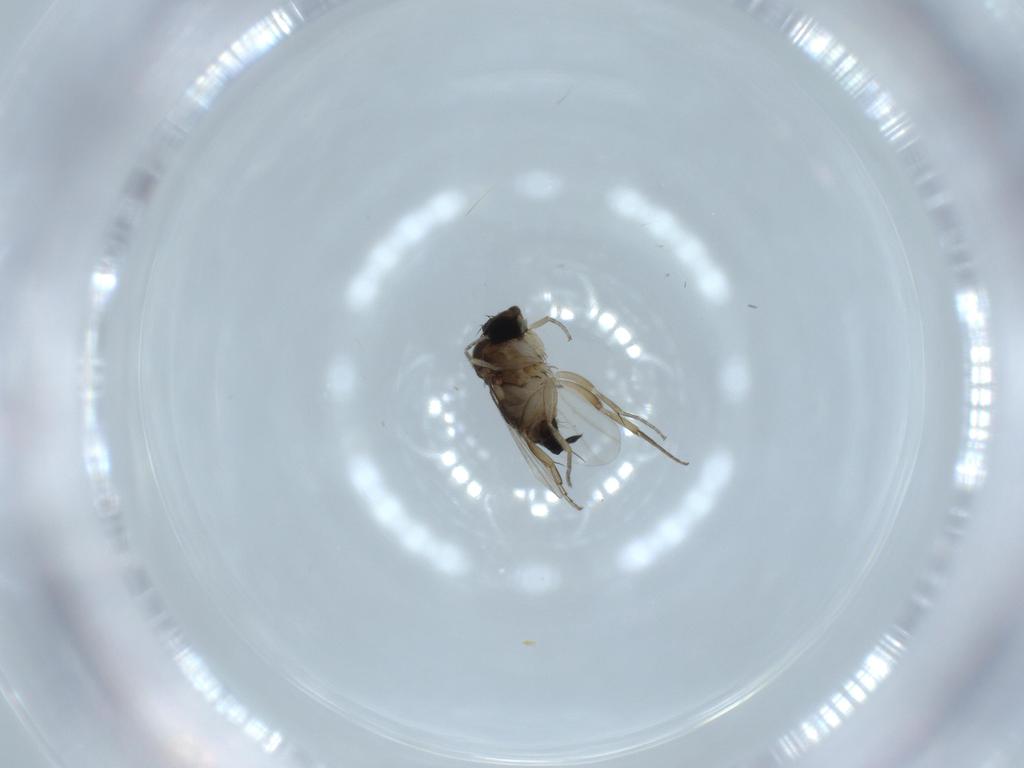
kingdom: Animalia
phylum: Arthropoda
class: Insecta
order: Diptera
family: Phoridae
